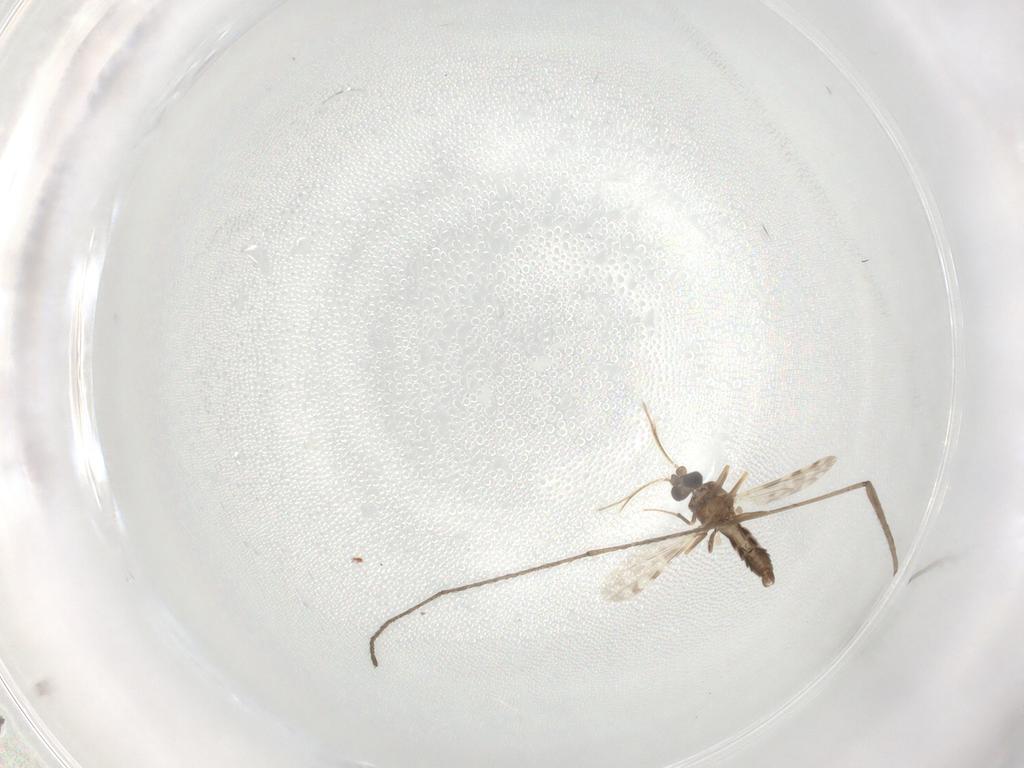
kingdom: Animalia
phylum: Arthropoda
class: Insecta
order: Diptera
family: Ceratopogonidae
